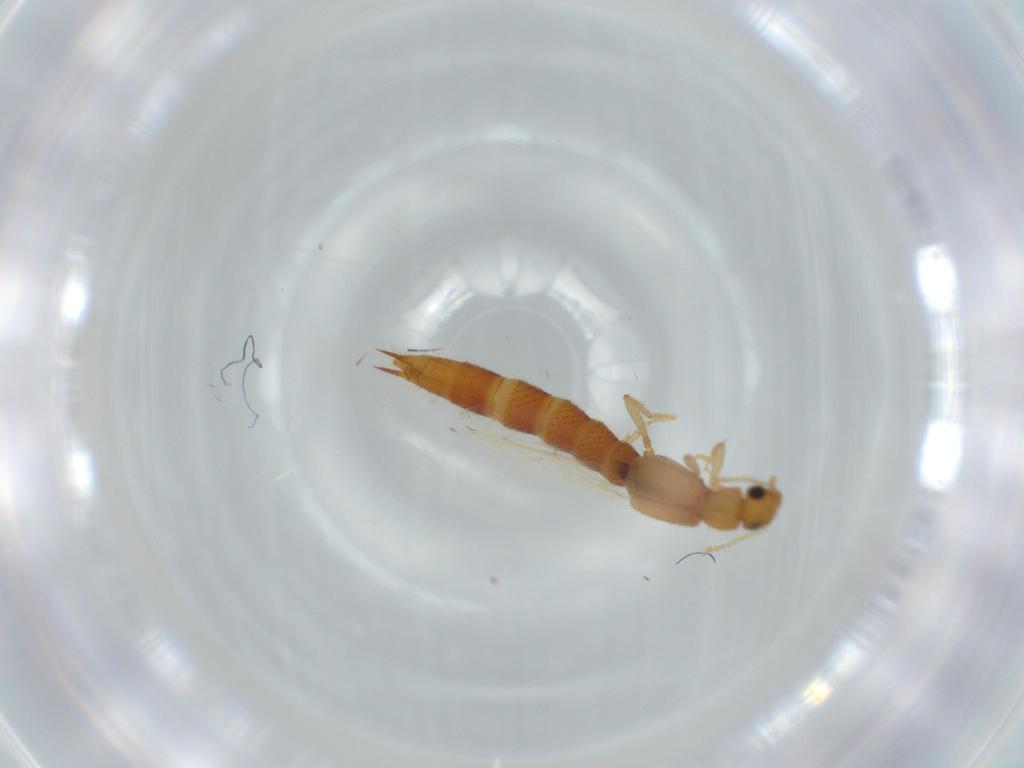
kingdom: Animalia
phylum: Arthropoda
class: Insecta
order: Coleoptera
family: Staphylinidae
